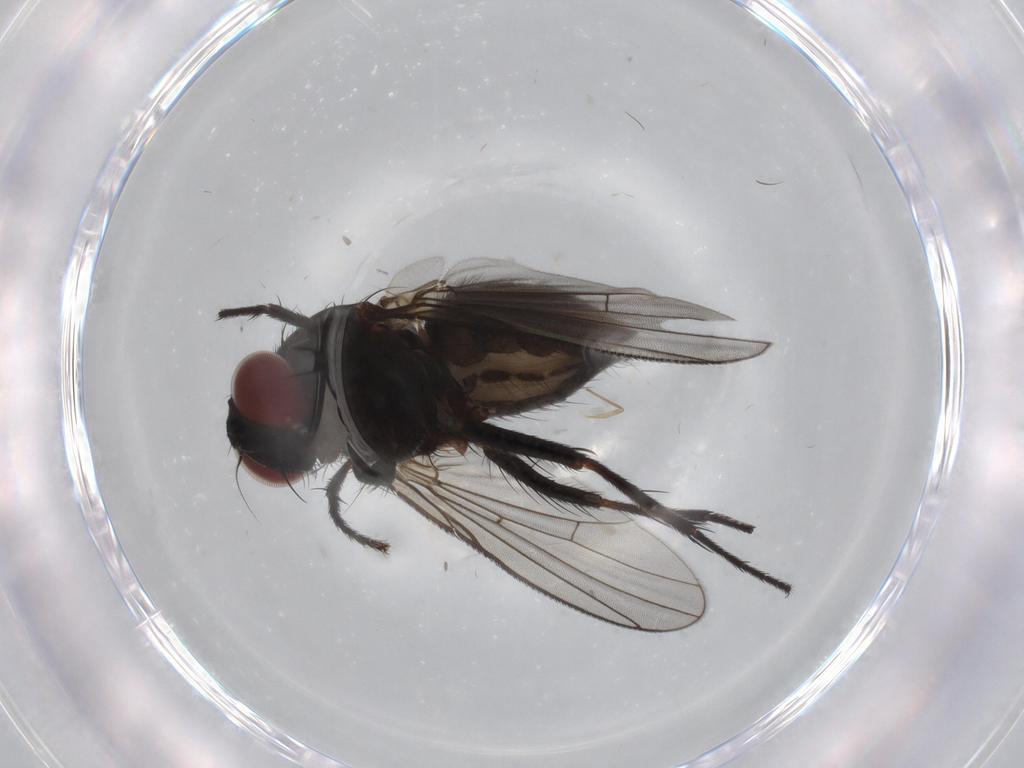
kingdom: Animalia
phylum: Arthropoda
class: Insecta
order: Diptera
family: Muscidae
